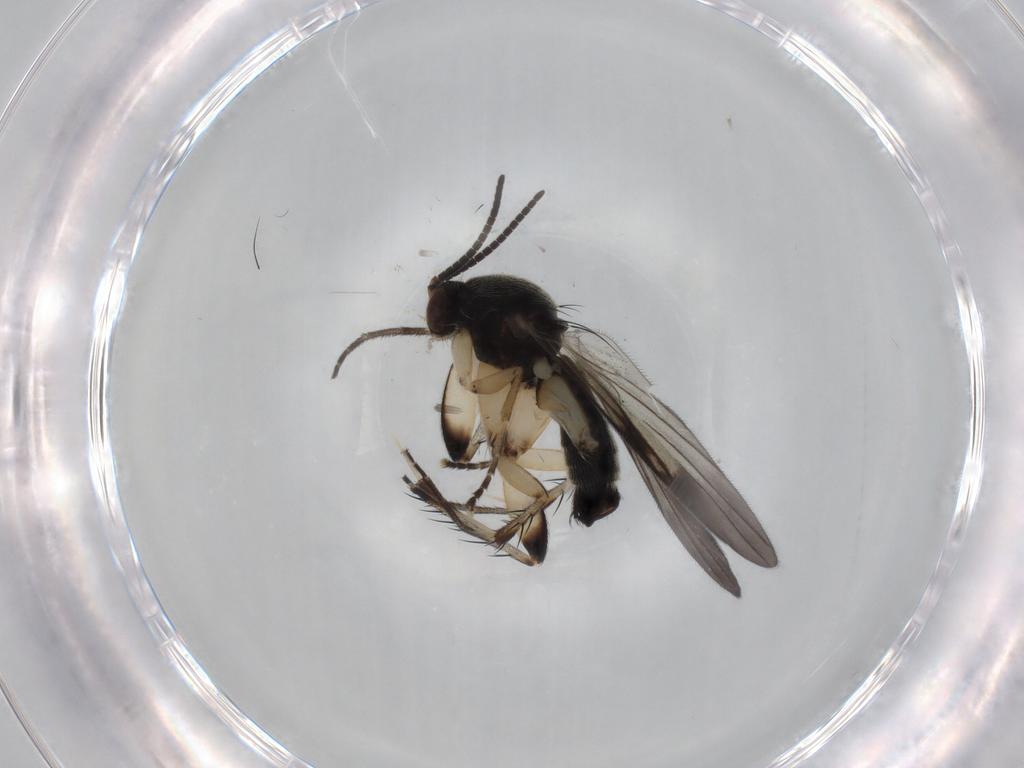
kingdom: Animalia
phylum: Arthropoda
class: Insecta
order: Diptera
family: Mycetophilidae
